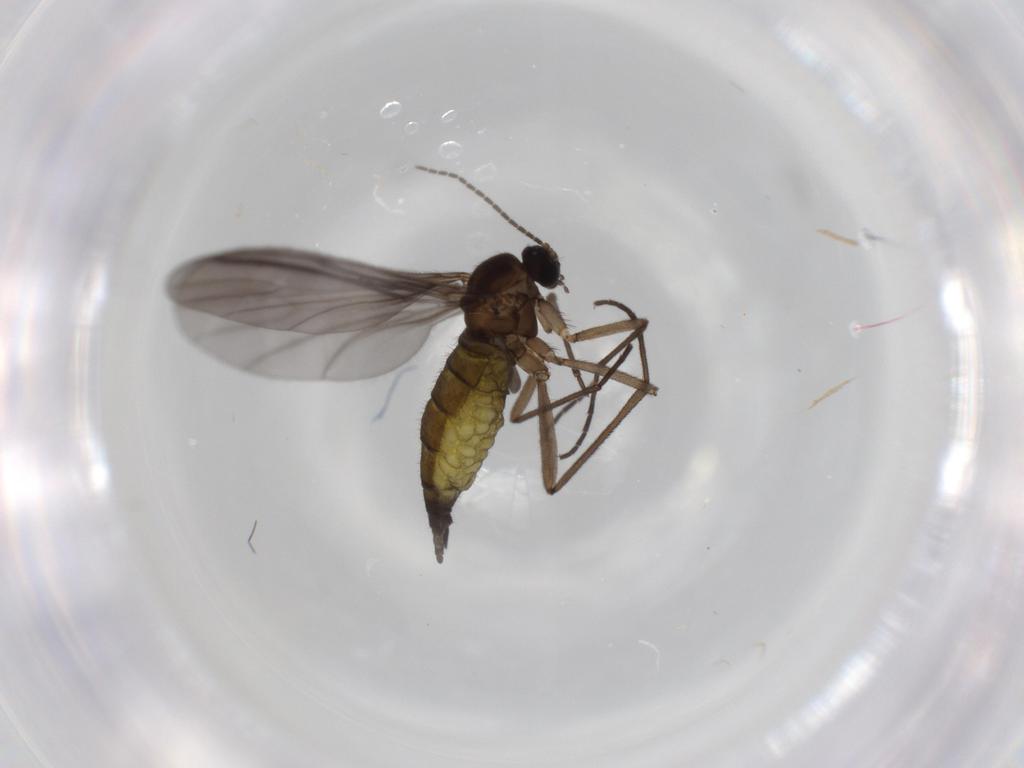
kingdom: Animalia
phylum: Arthropoda
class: Insecta
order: Diptera
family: Sciaridae
